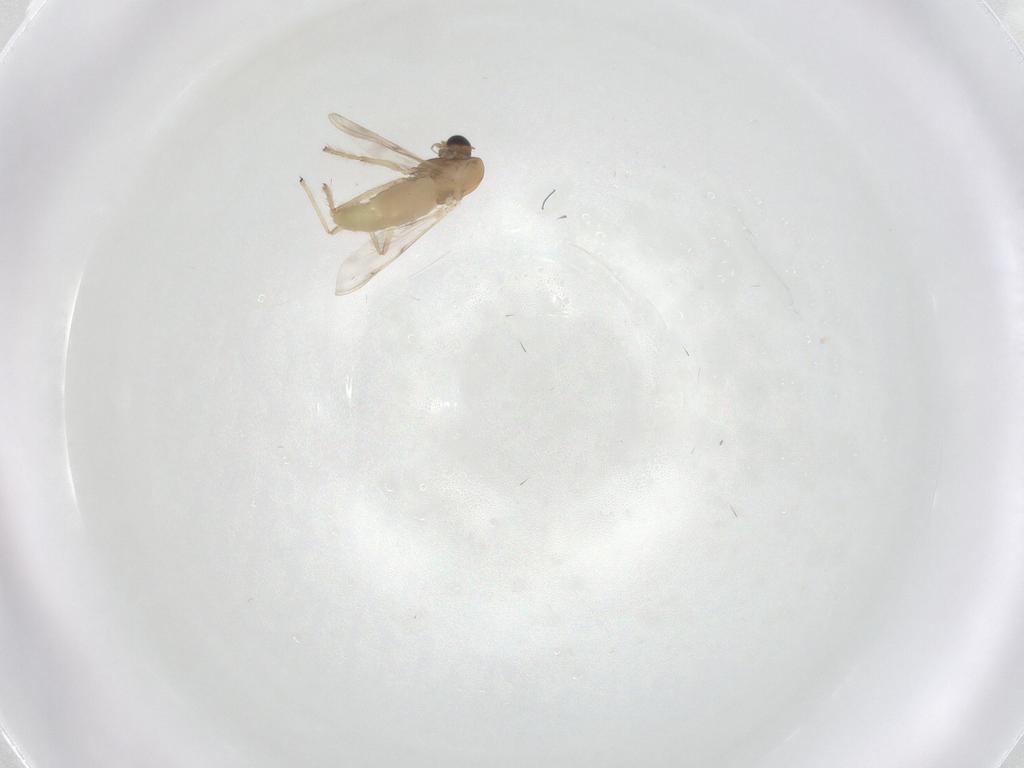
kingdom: Animalia
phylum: Arthropoda
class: Insecta
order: Diptera
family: Chironomidae
